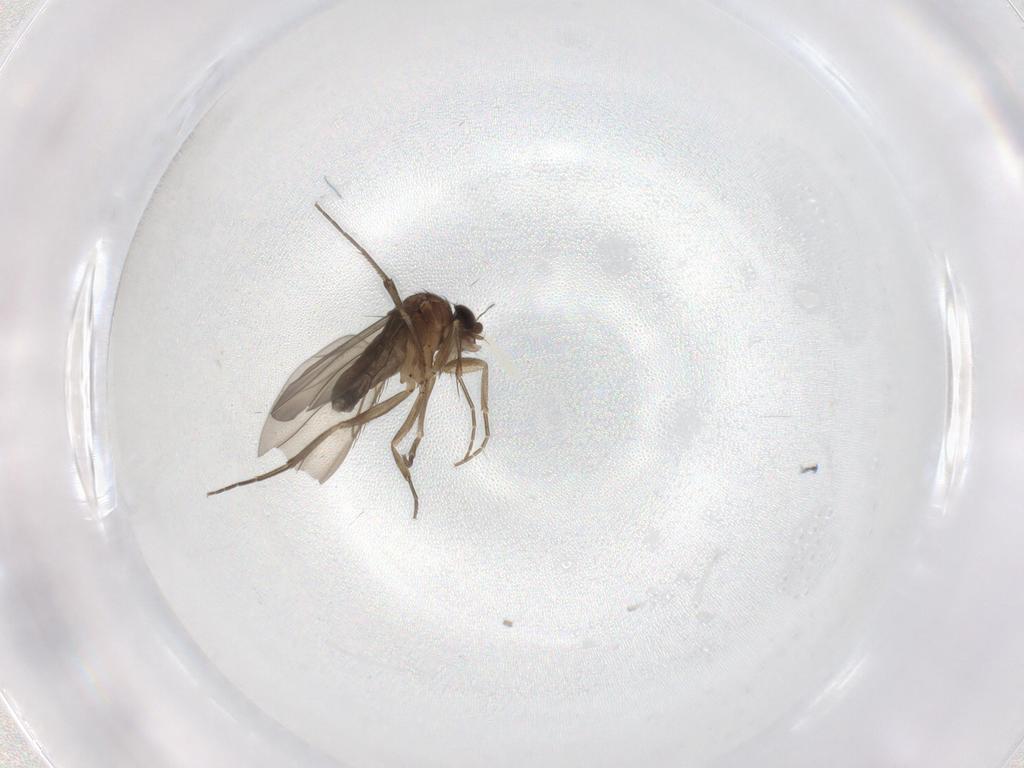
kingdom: Animalia
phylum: Arthropoda
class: Insecta
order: Diptera
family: Phoridae
